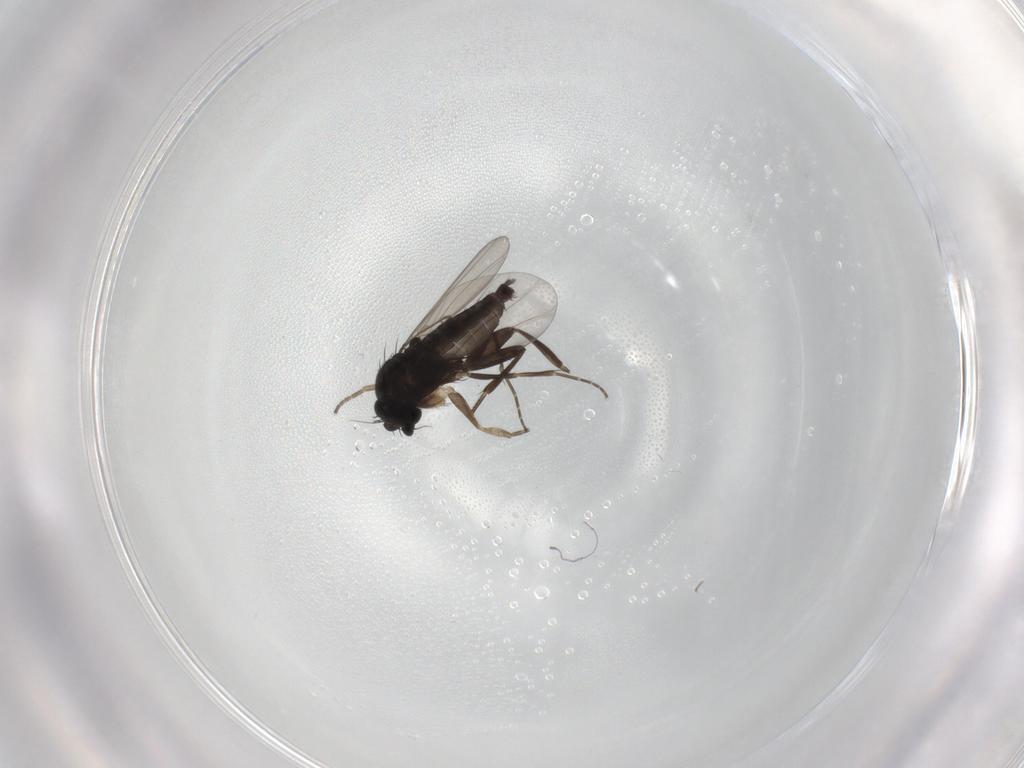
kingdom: Animalia
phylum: Arthropoda
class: Insecta
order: Diptera
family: Phoridae
